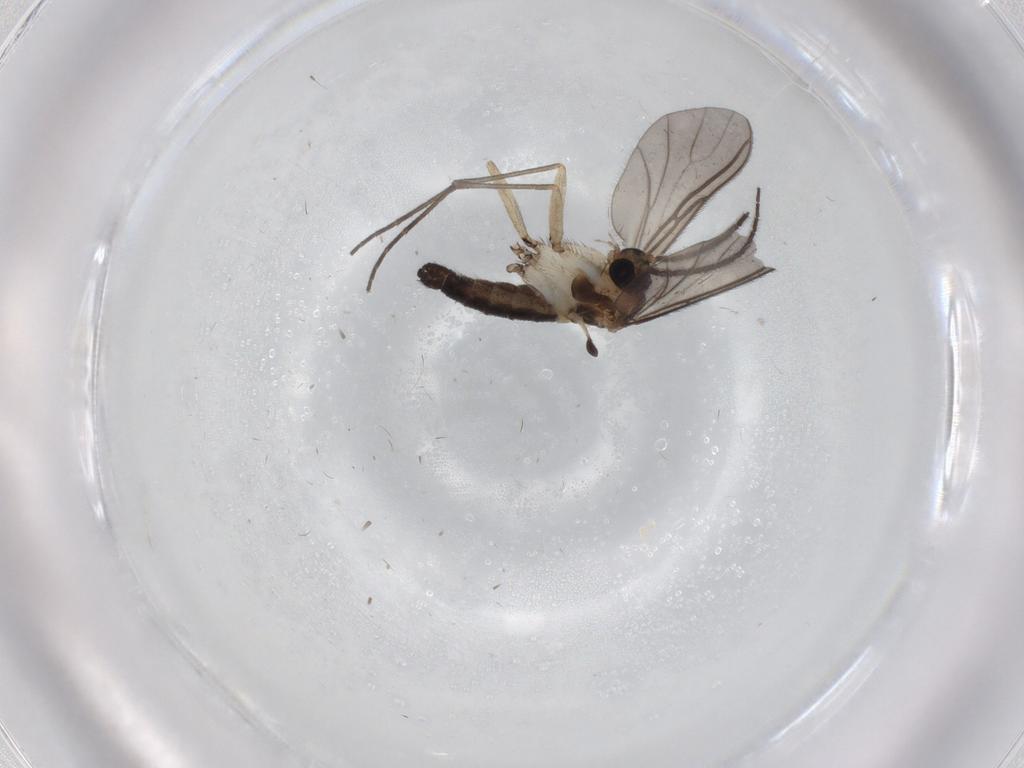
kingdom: Animalia
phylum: Arthropoda
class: Insecta
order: Diptera
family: Sciaridae
